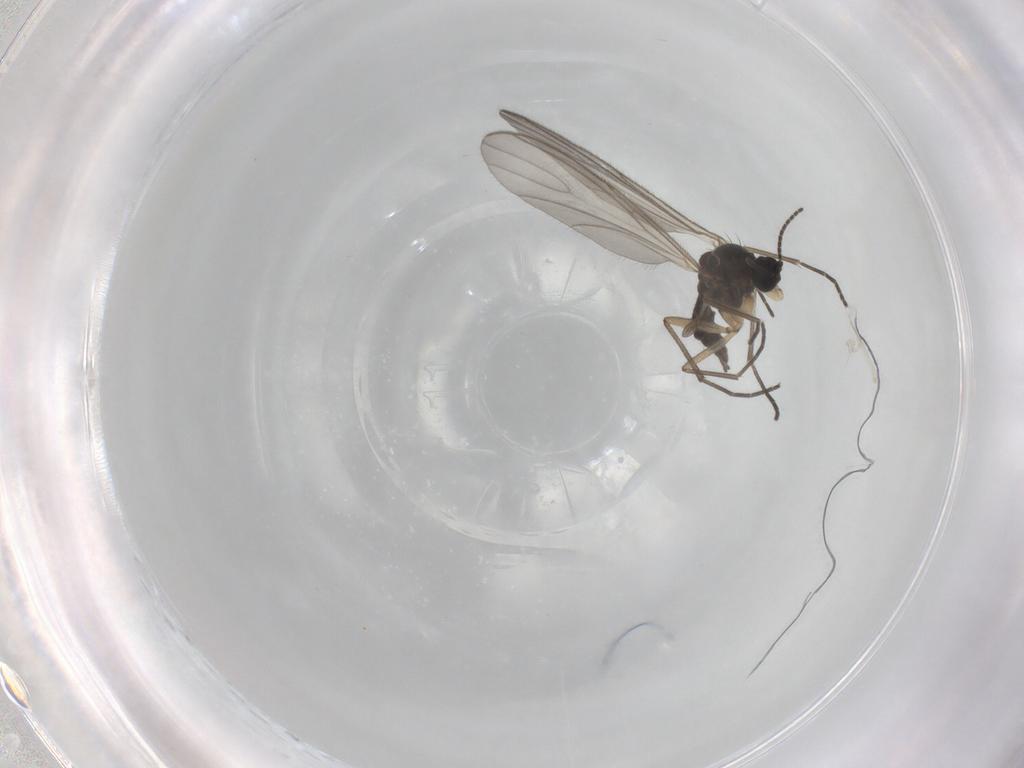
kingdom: Animalia
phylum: Arthropoda
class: Insecta
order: Diptera
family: Sciaridae
